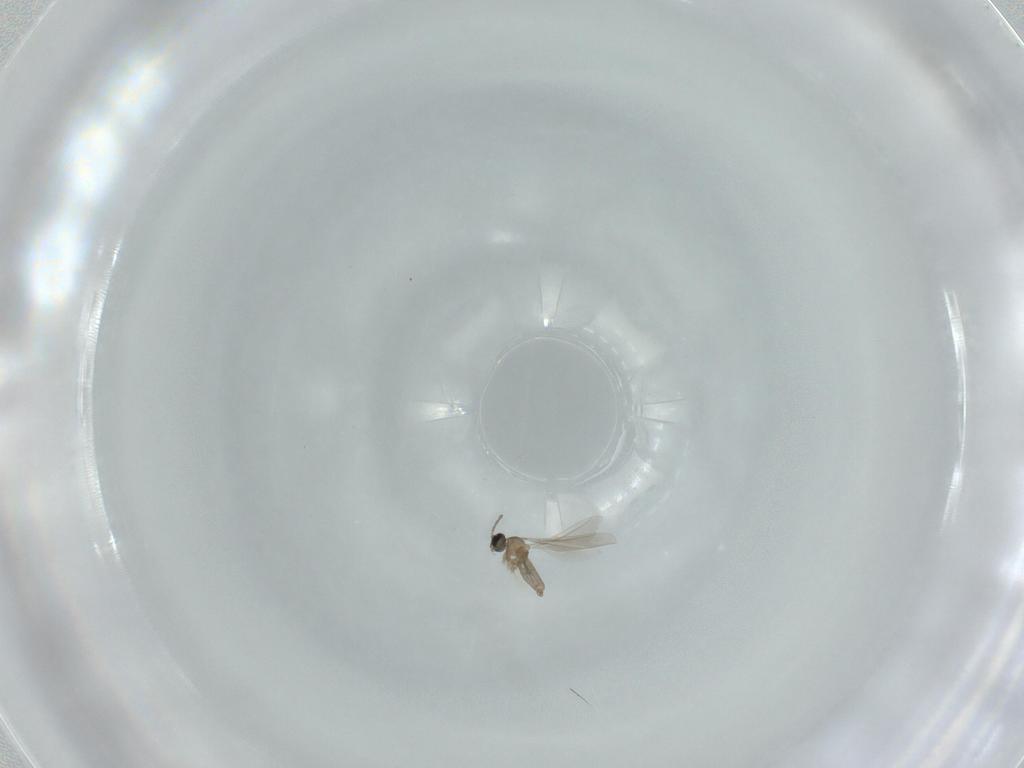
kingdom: Animalia
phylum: Arthropoda
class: Insecta
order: Diptera
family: Cecidomyiidae
